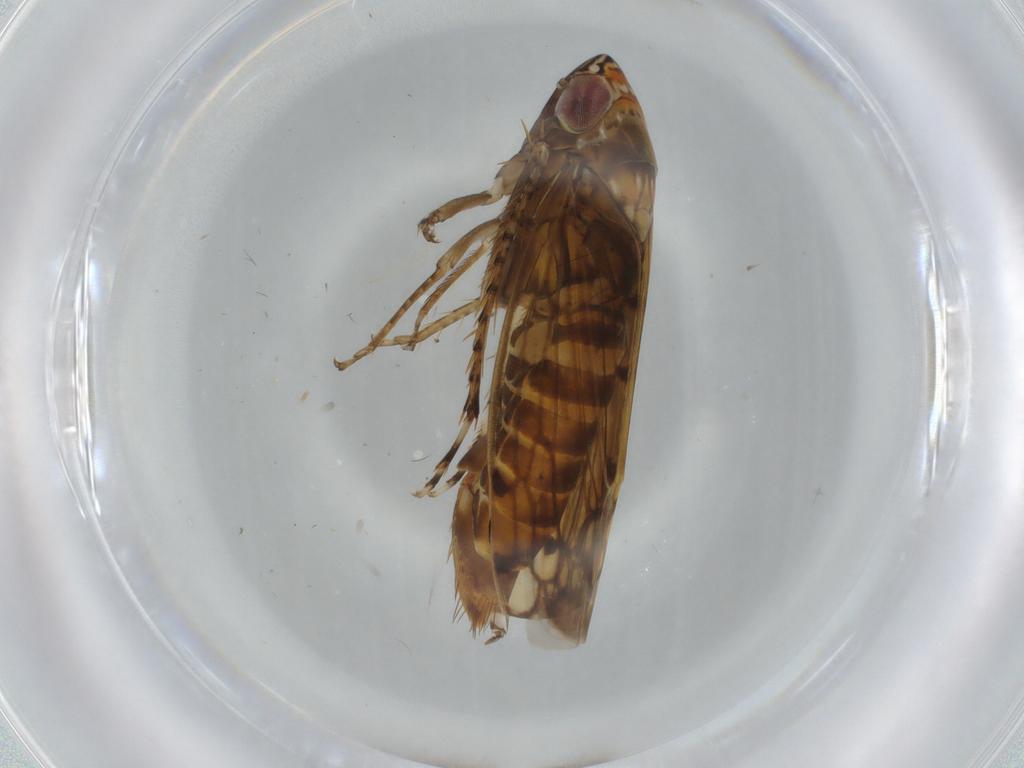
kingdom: Animalia
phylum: Arthropoda
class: Insecta
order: Hemiptera
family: Cicadellidae
